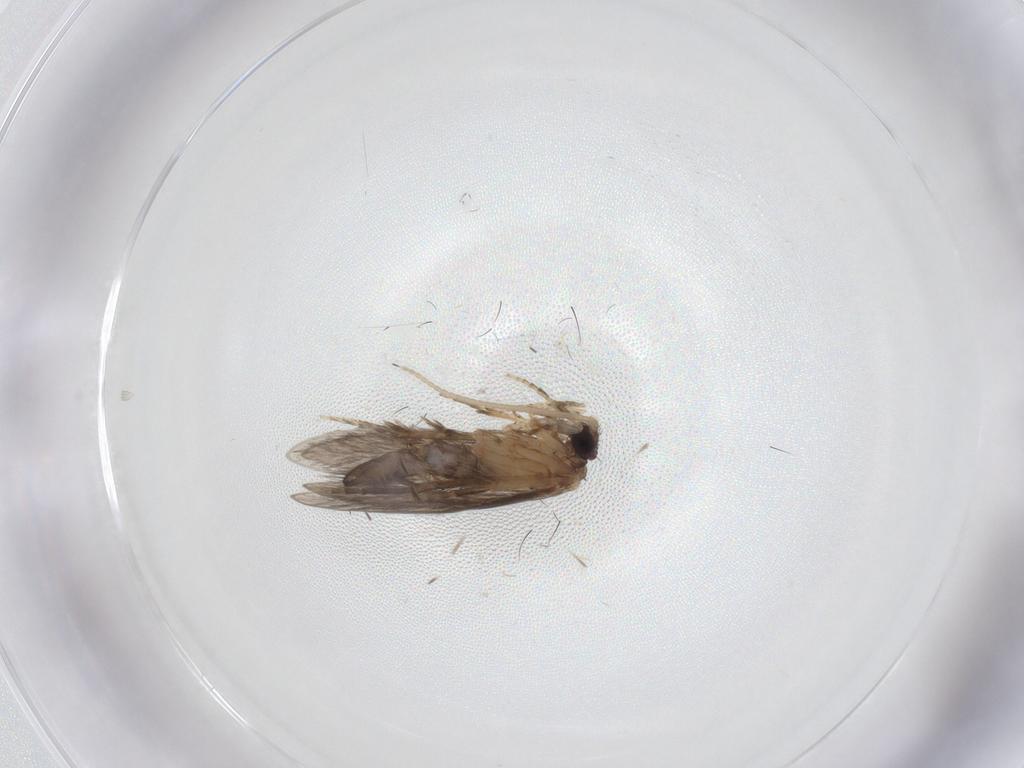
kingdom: Animalia
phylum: Arthropoda
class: Insecta
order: Trichoptera
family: Hydroptilidae
